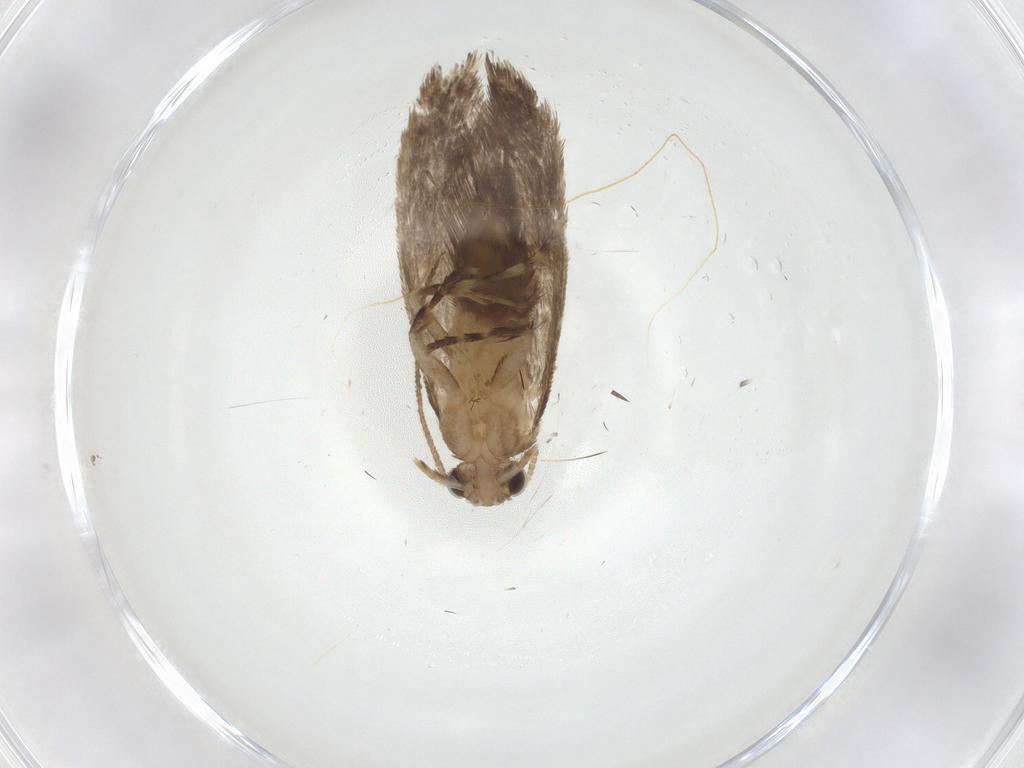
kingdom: Animalia
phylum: Arthropoda
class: Insecta
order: Lepidoptera
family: Dryadaulidae
